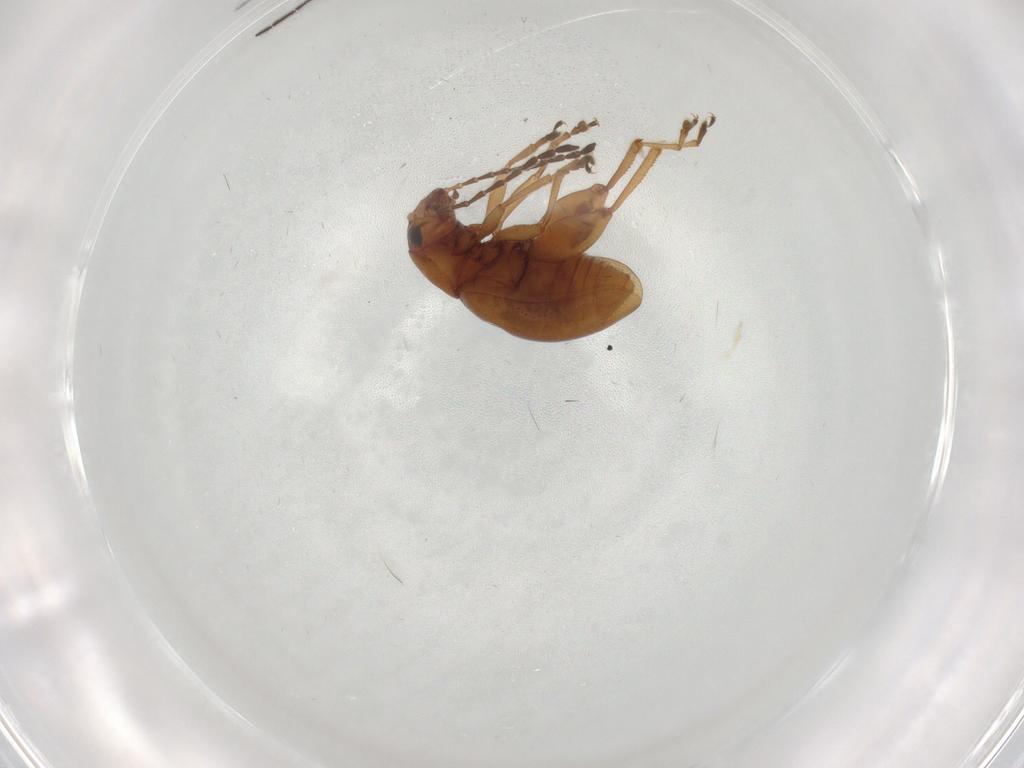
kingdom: Animalia
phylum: Arthropoda
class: Insecta
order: Coleoptera
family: Chrysomelidae
